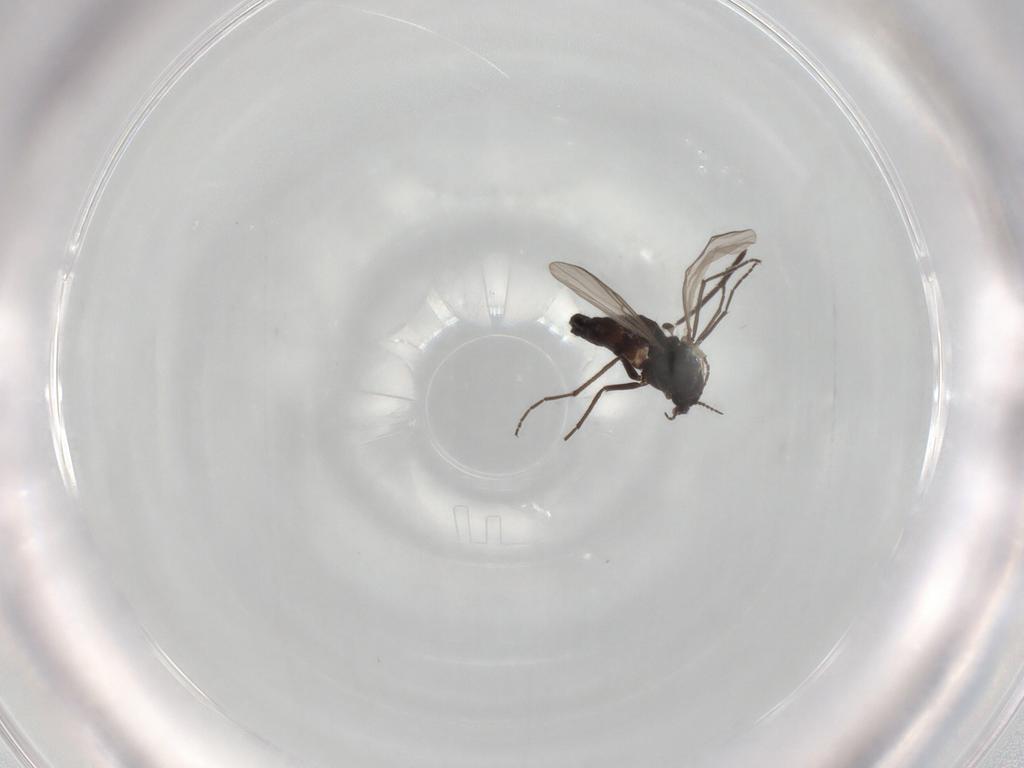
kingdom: Animalia
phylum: Arthropoda
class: Insecta
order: Diptera
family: Chironomidae
